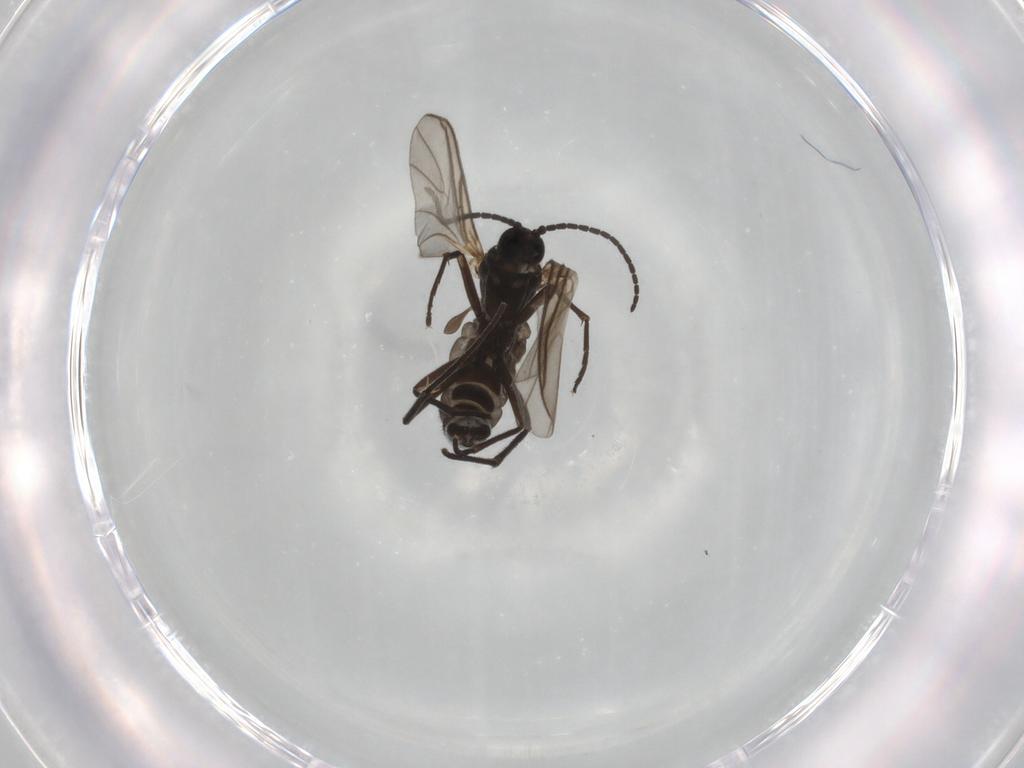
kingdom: Animalia
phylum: Arthropoda
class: Insecta
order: Diptera
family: Sciaridae
